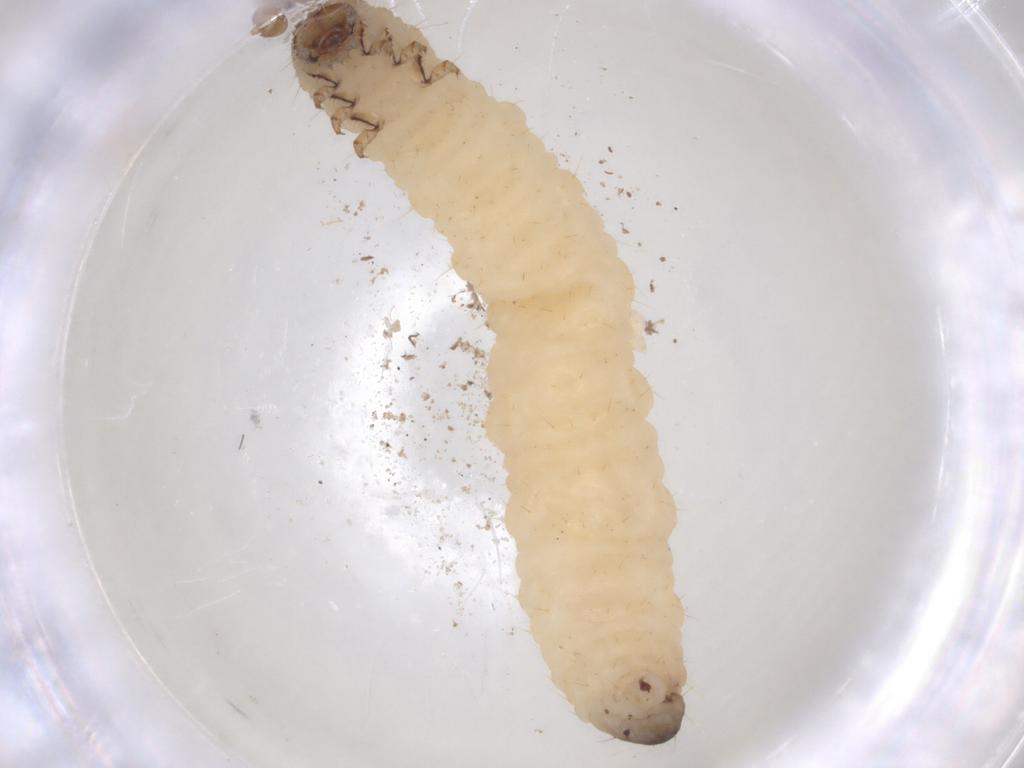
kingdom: Animalia
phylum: Arthropoda
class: Insecta
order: Coleoptera
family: Chrysomelidae
